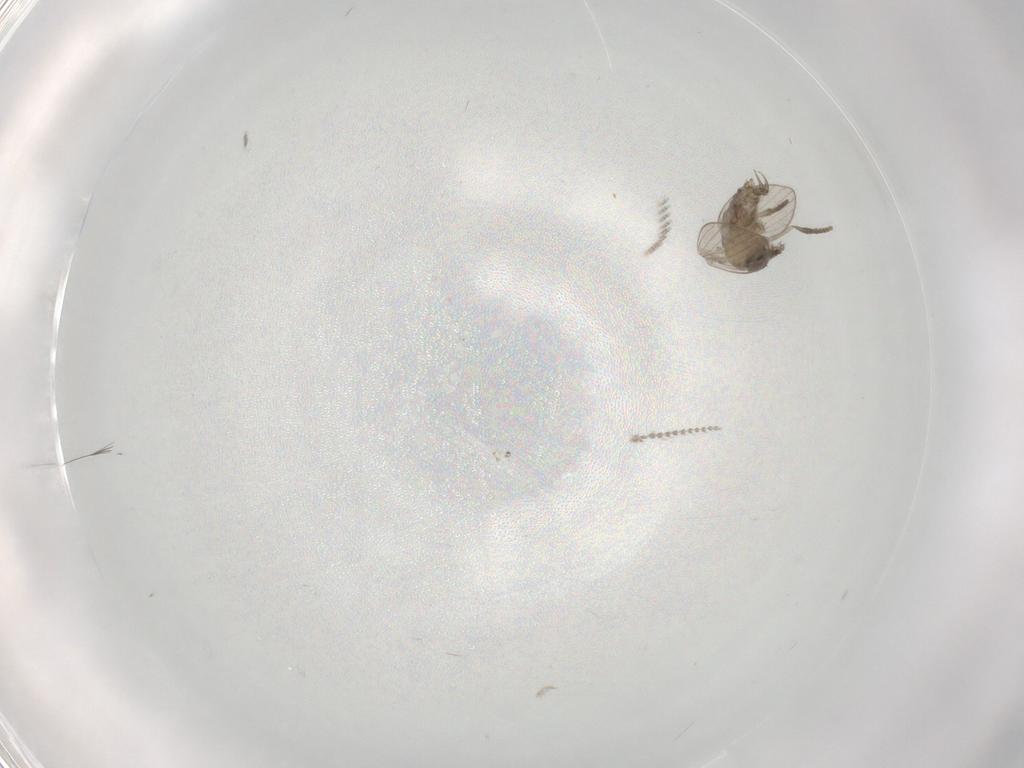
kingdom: Animalia
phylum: Arthropoda
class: Insecta
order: Diptera
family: Psychodidae
